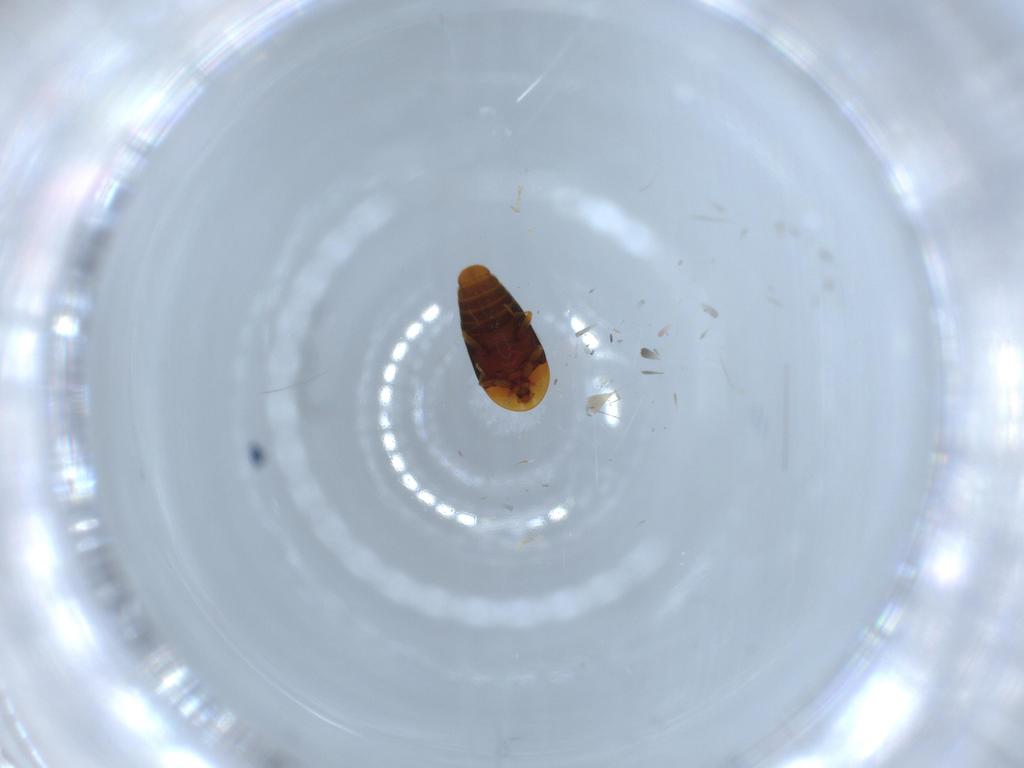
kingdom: Animalia
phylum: Arthropoda
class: Insecta
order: Coleoptera
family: Corylophidae
